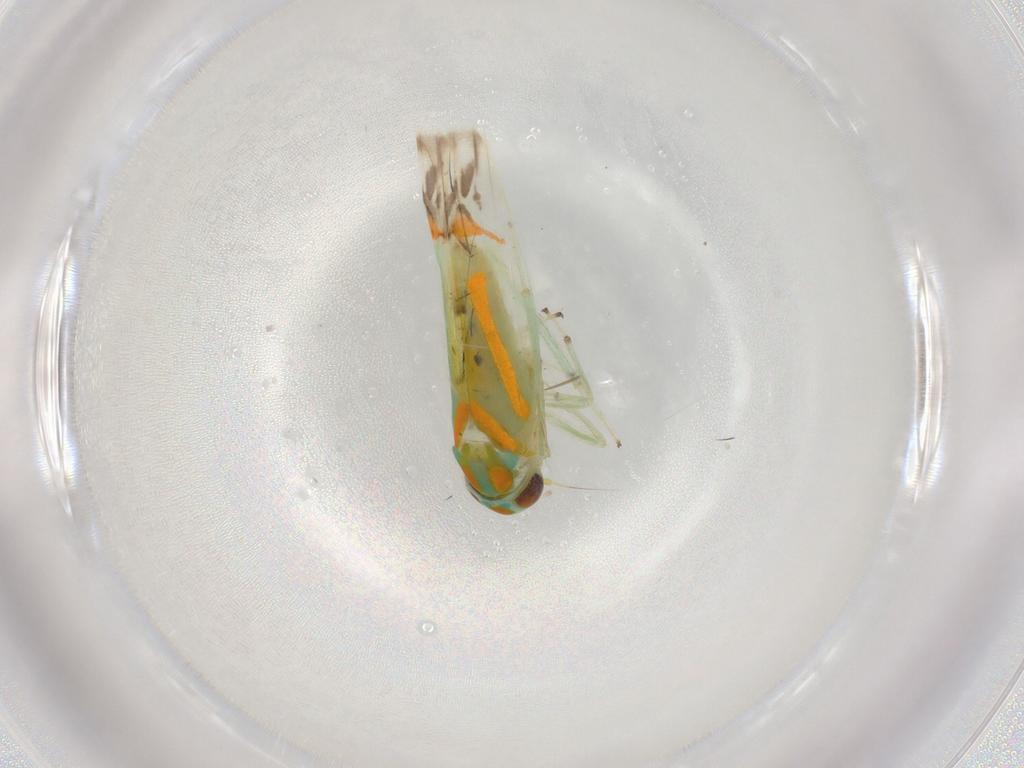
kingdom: Animalia
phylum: Arthropoda
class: Insecta
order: Hemiptera
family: Cicadellidae
